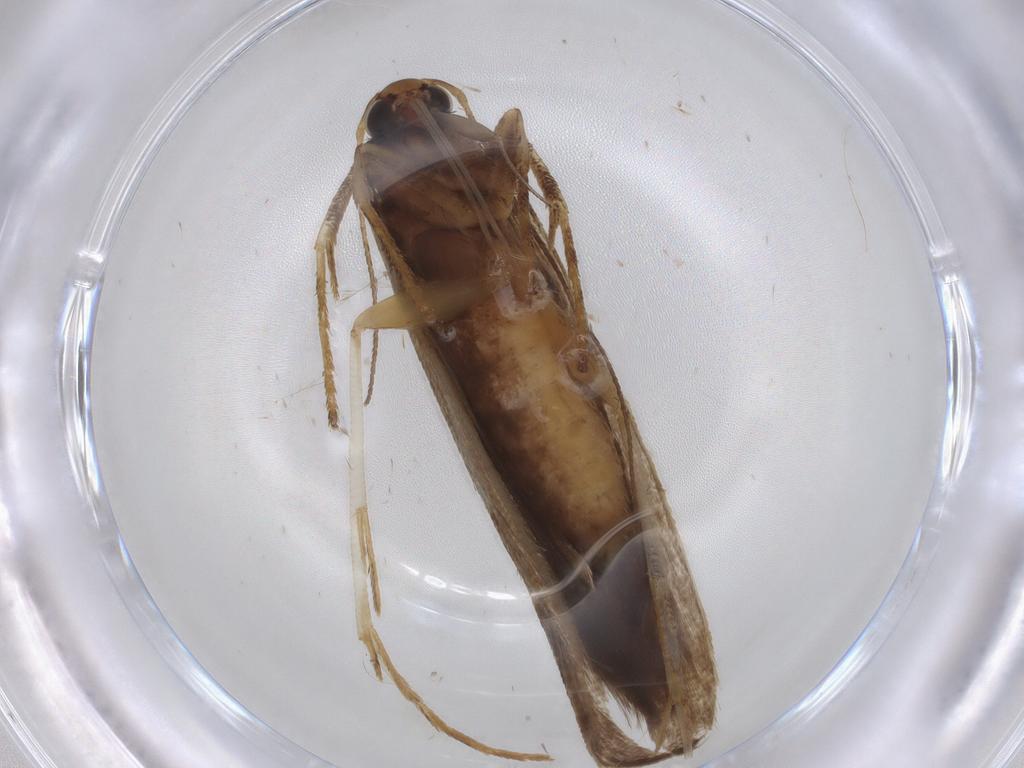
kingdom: Animalia
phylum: Arthropoda
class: Insecta
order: Lepidoptera
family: Gelechiidae
